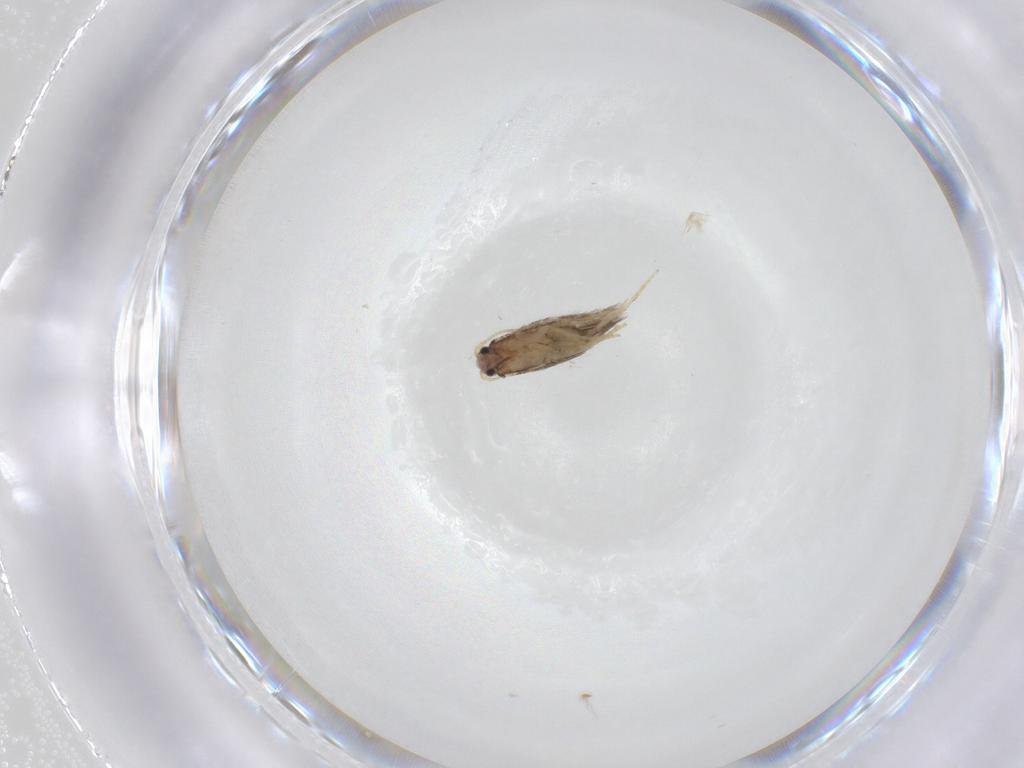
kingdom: Animalia
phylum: Arthropoda
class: Insecta
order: Lepidoptera
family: Nepticulidae
